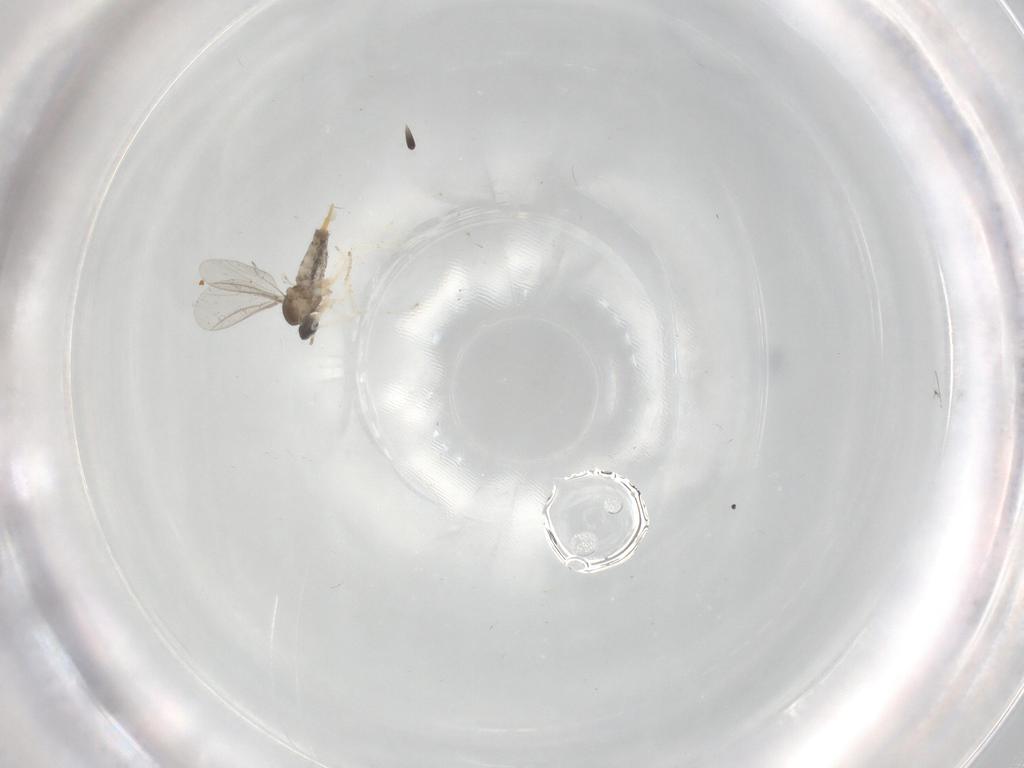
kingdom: Animalia
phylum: Arthropoda
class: Insecta
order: Diptera
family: Cecidomyiidae
